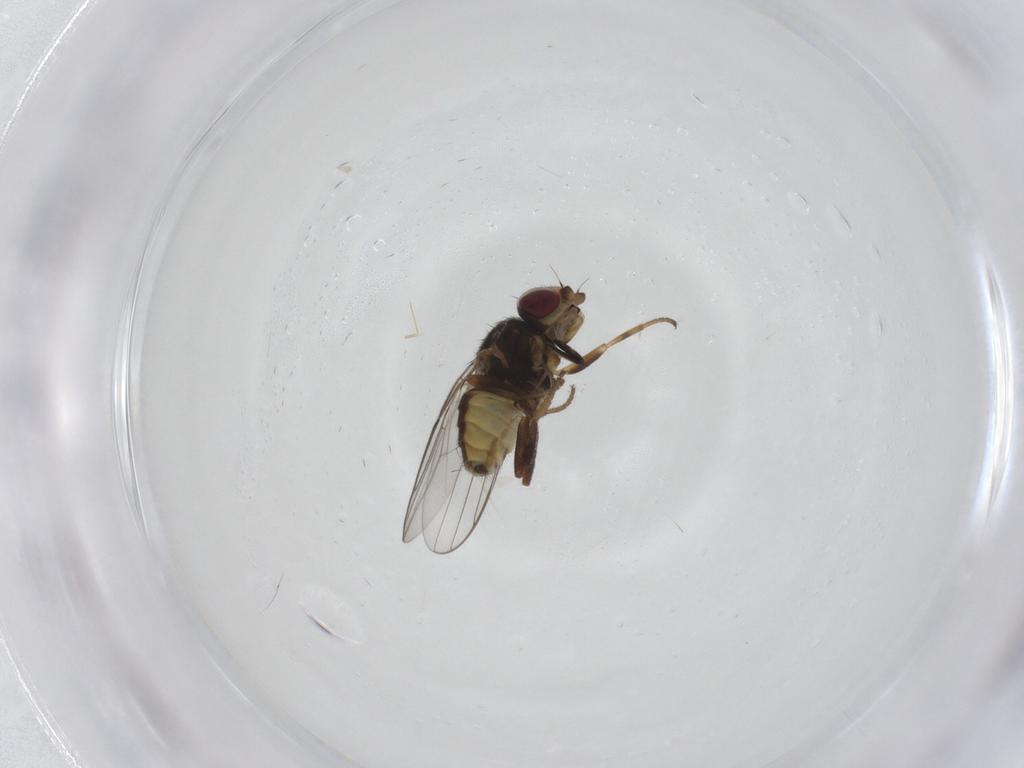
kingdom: Animalia
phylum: Arthropoda
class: Insecta
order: Diptera
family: Chloropidae
